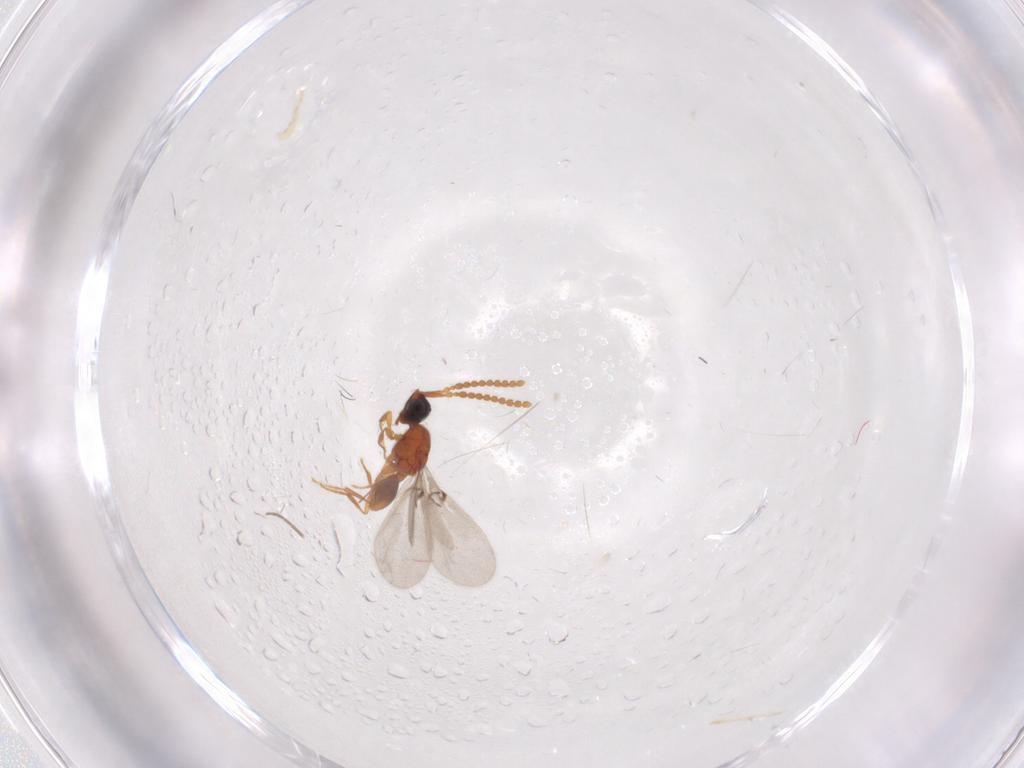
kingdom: Animalia
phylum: Arthropoda
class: Insecta
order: Hymenoptera
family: Diapriidae
